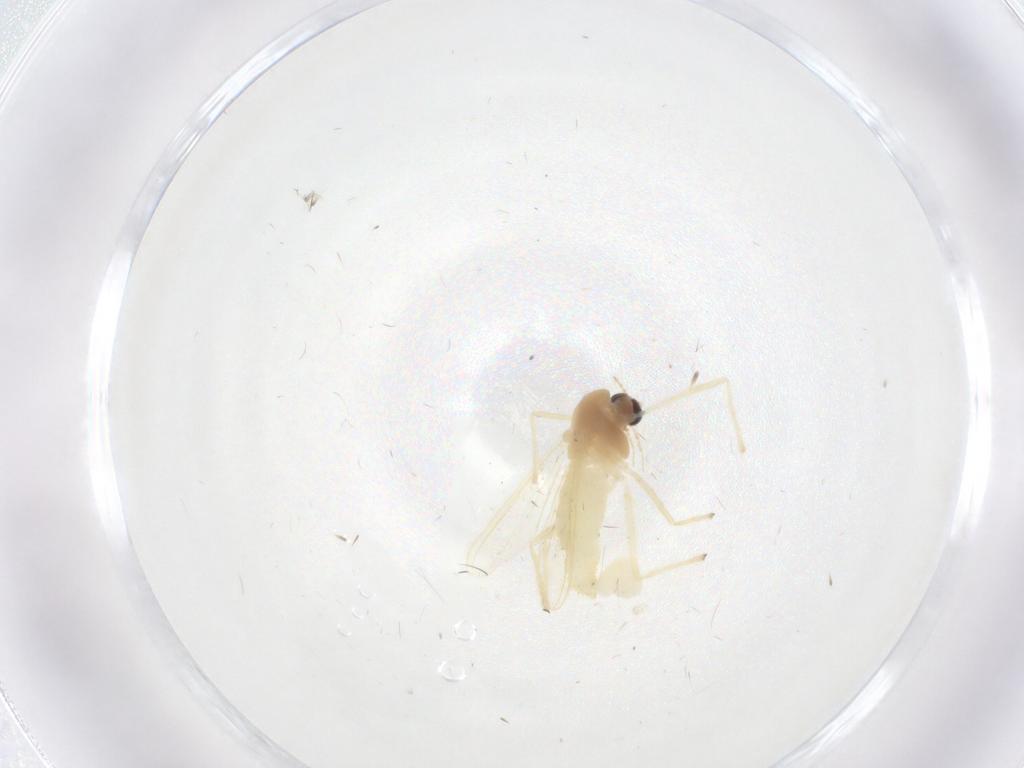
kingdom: Animalia
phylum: Arthropoda
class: Insecta
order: Diptera
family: Chironomidae
